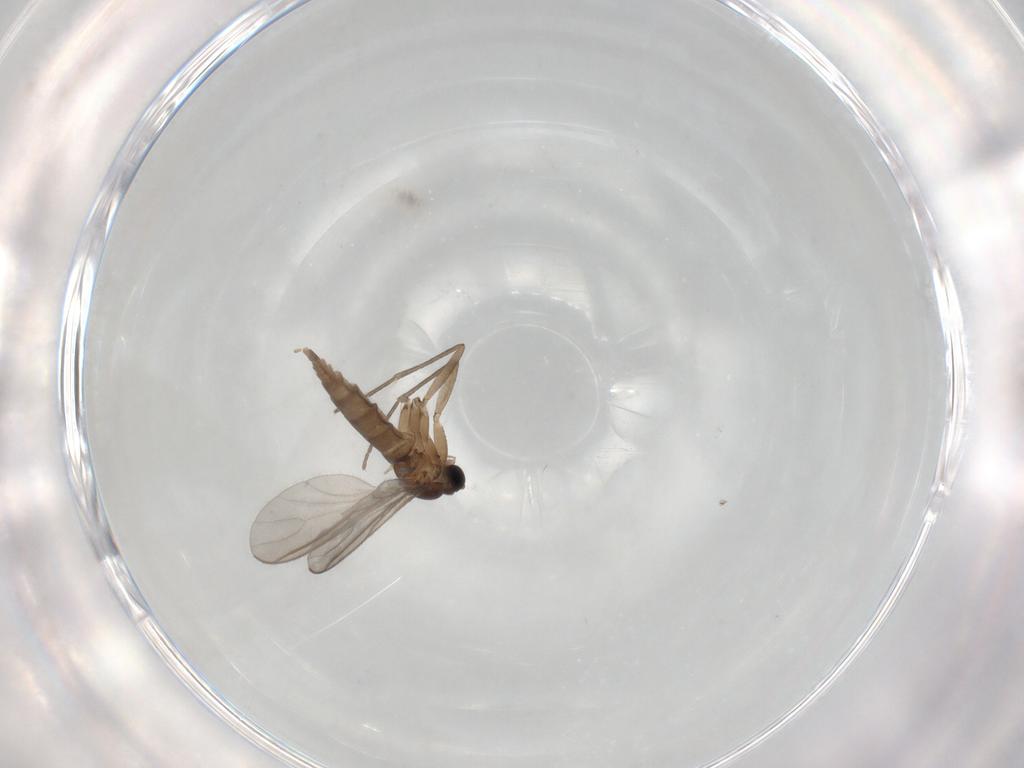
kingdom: Animalia
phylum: Arthropoda
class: Insecta
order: Diptera
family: Sciaridae
